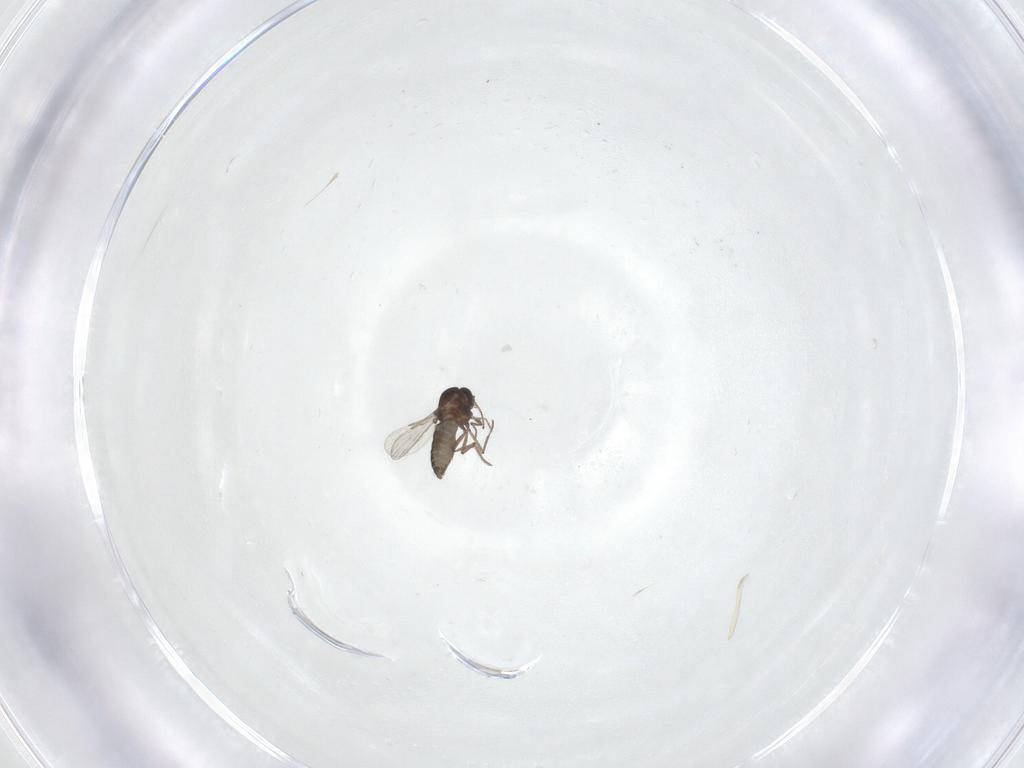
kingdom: Animalia
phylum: Arthropoda
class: Insecta
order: Diptera
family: Ceratopogonidae
